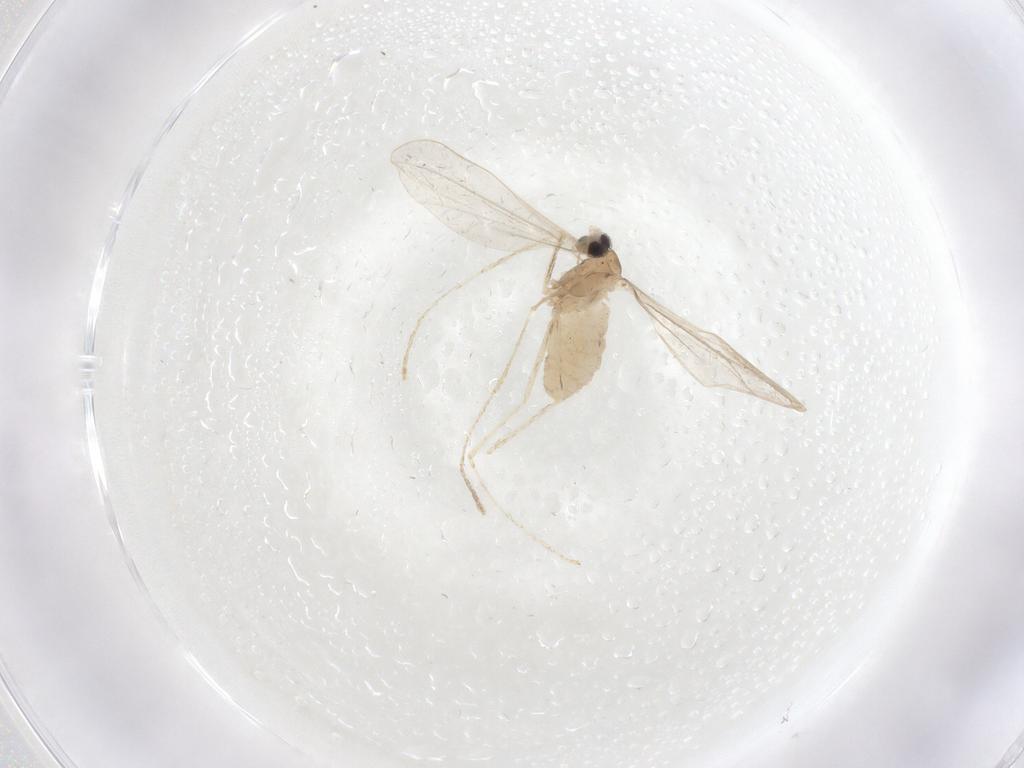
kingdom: Animalia
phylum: Arthropoda
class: Insecta
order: Diptera
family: Cecidomyiidae
